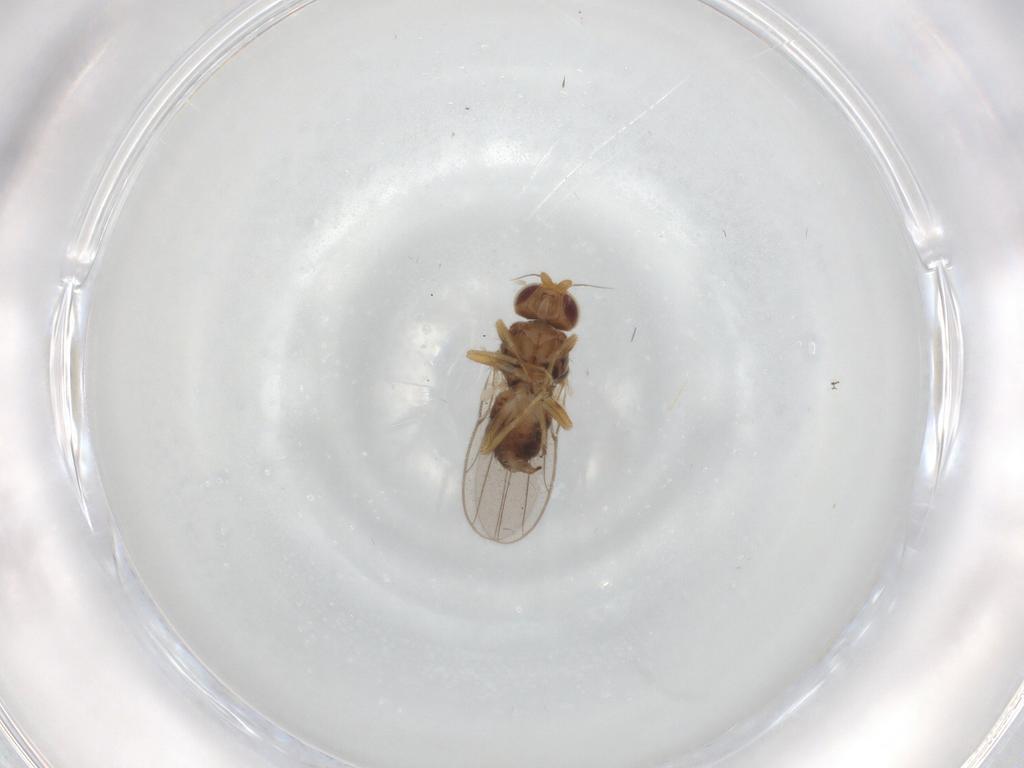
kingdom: Animalia
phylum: Arthropoda
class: Insecta
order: Diptera
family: Chloropidae
